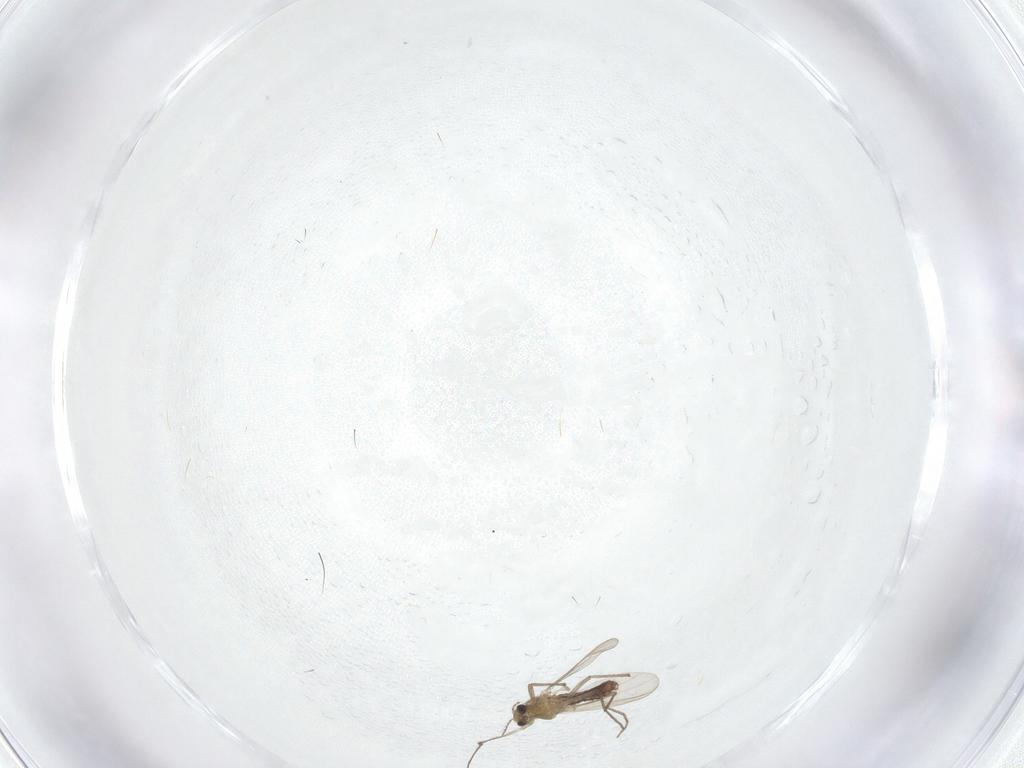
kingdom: Animalia
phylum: Arthropoda
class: Insecta
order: Diptera
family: Chironomidae
